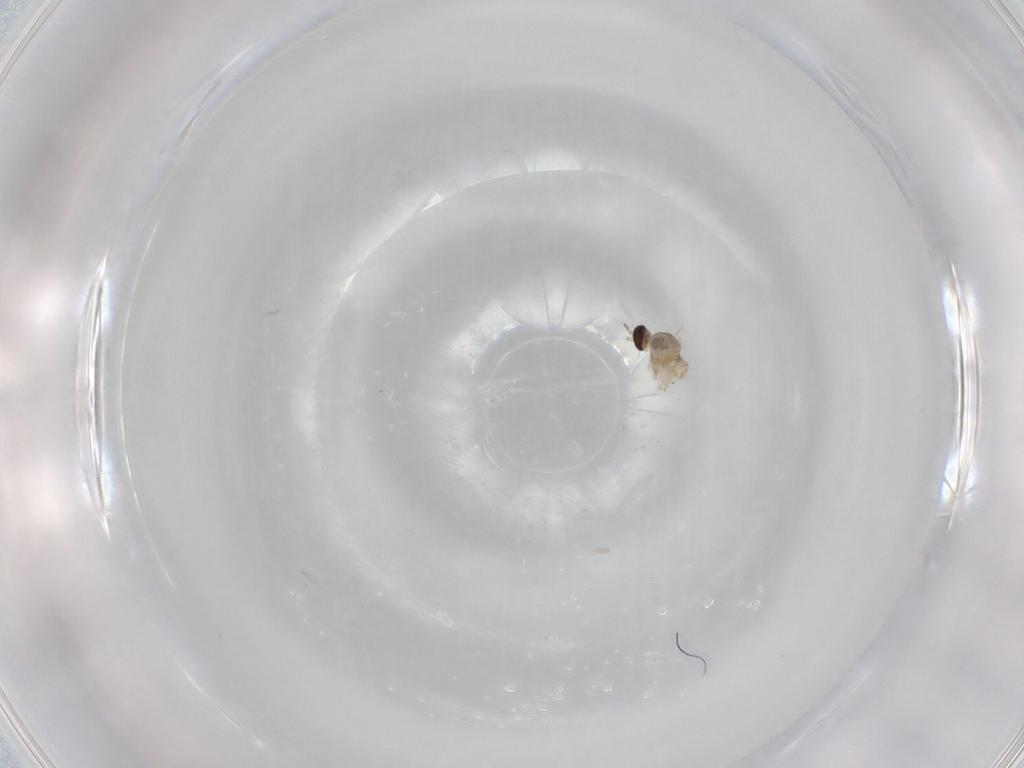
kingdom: Animalia
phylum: Arthropoda
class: Insecta
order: Diptera
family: Cecidomyiidae
